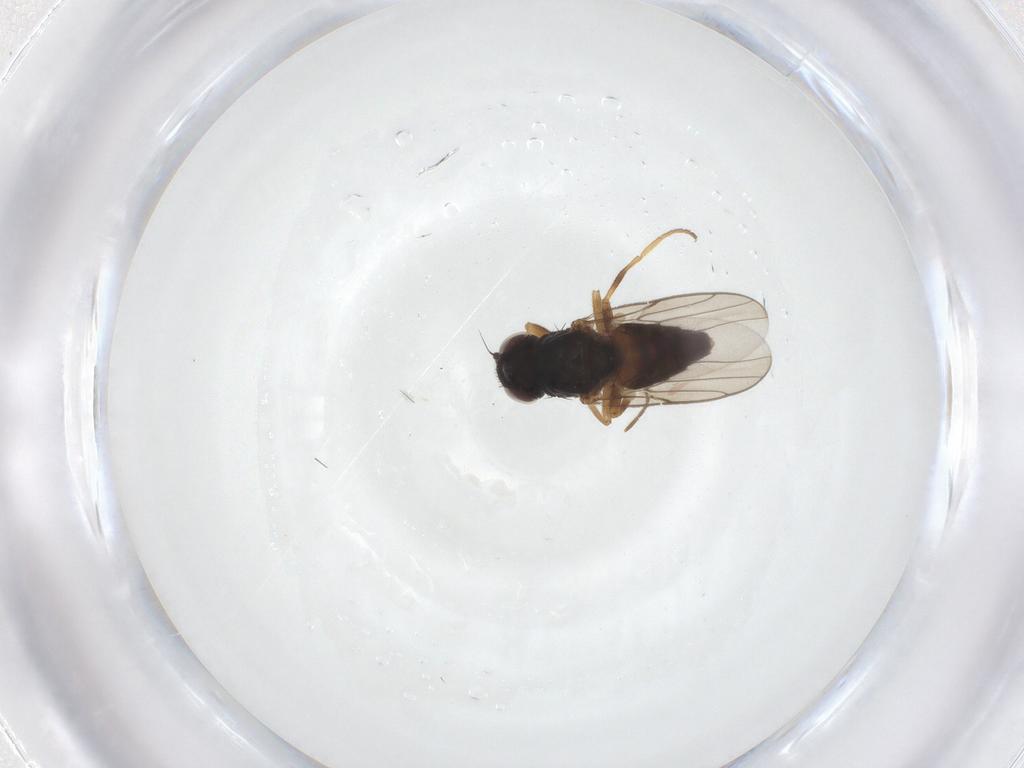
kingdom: Animalia
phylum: Arthropoda
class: Insecta
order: Diptera
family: Chloropidae
